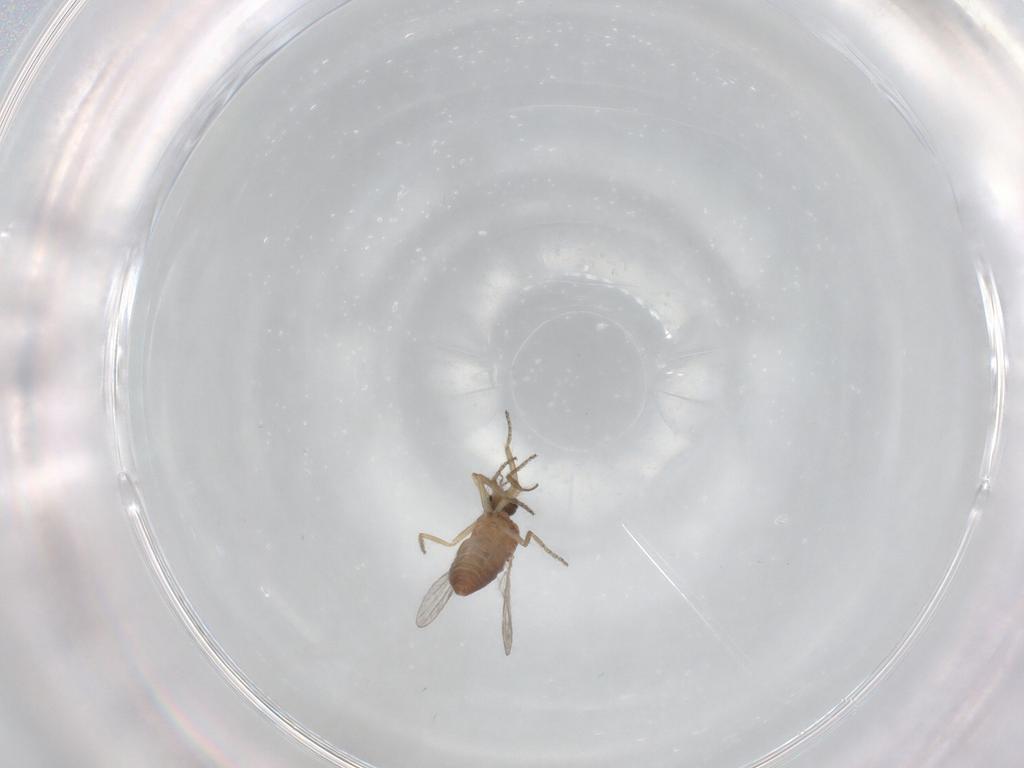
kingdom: Animalia
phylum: Arthropoda
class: Insecta
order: Diptera
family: Ceratopogonidae
